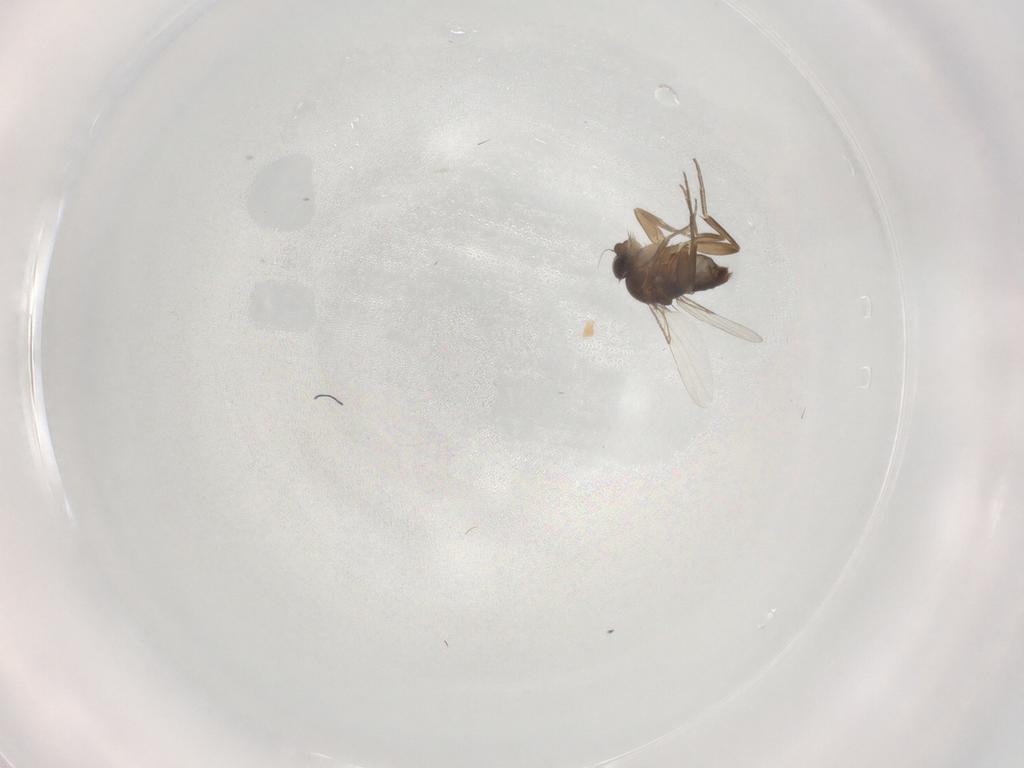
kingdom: Animalia
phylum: Arthropoda
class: Insecta
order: Diptera
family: Phoridae
